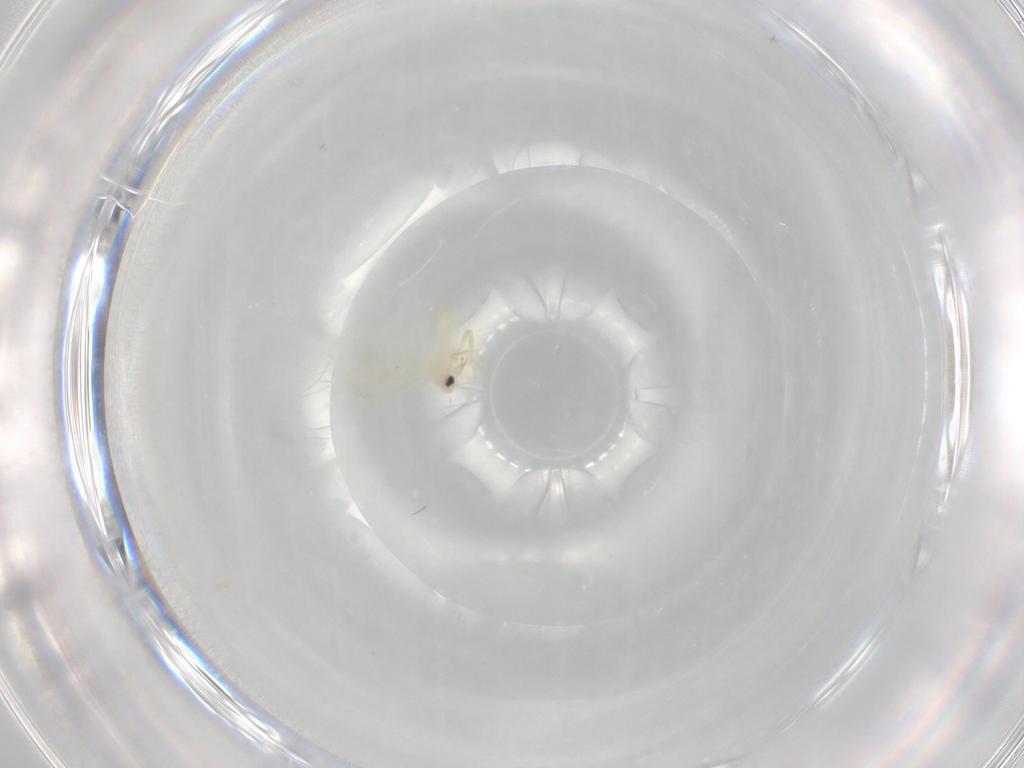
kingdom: Animalia
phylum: Arthropoda
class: Insecta
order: Hemiptera
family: Aleyrodidae
